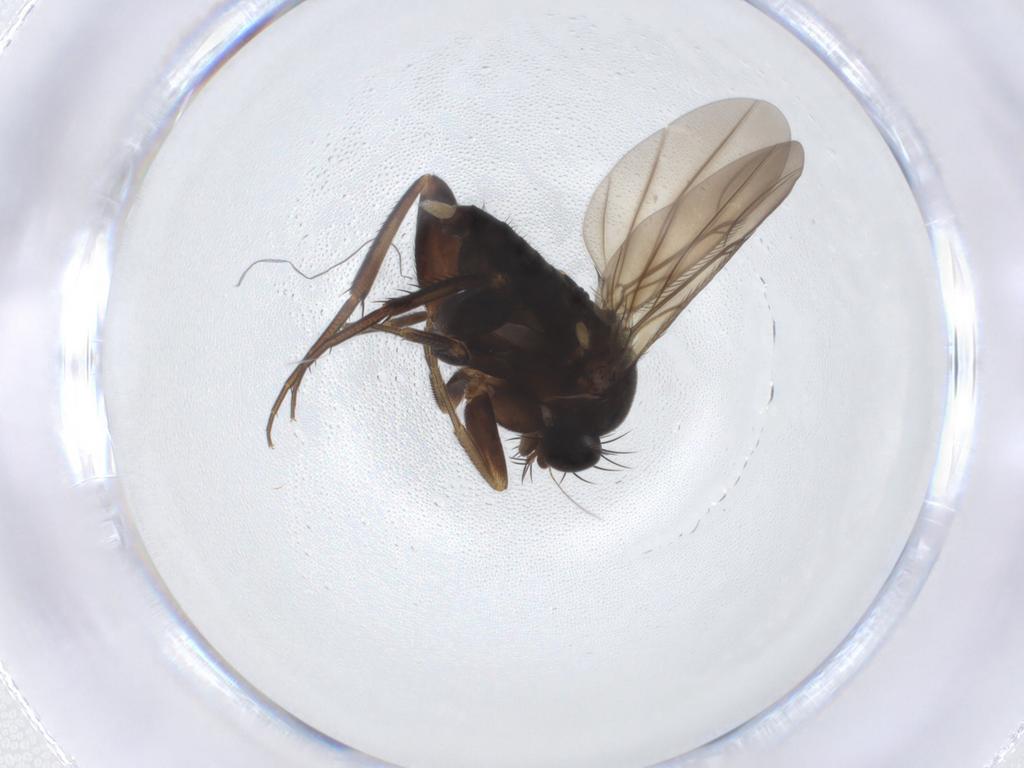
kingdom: Animalia
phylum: Arthropoda
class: Insecta
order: Diptera
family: Phoridae
